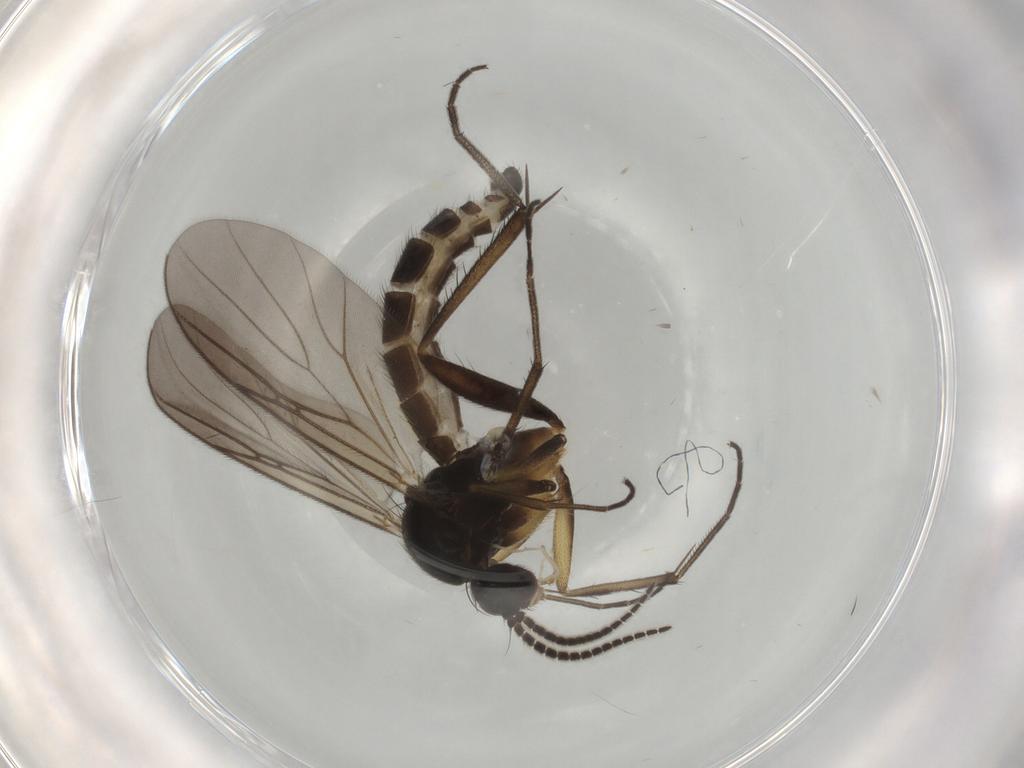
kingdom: Animalia
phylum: Arthropoda
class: Insecta
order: Diptera
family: Mycetophilidae
